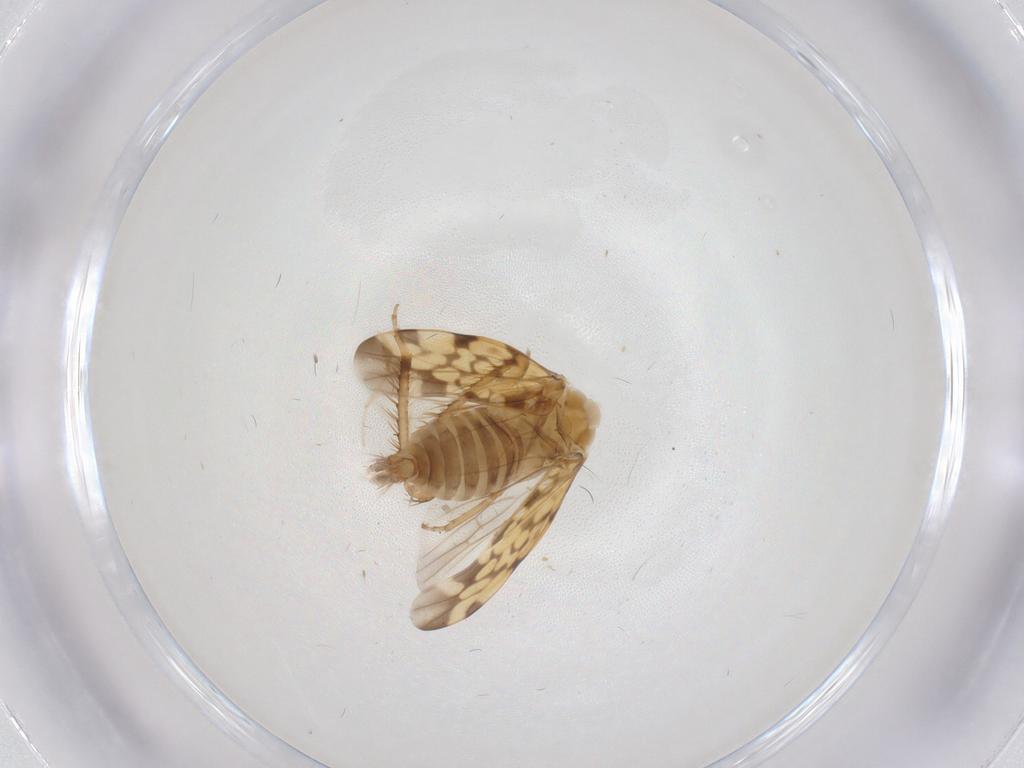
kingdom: Animalia
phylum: Arthropoda
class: Insecta
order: Hemiptera
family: Cicadellidae
